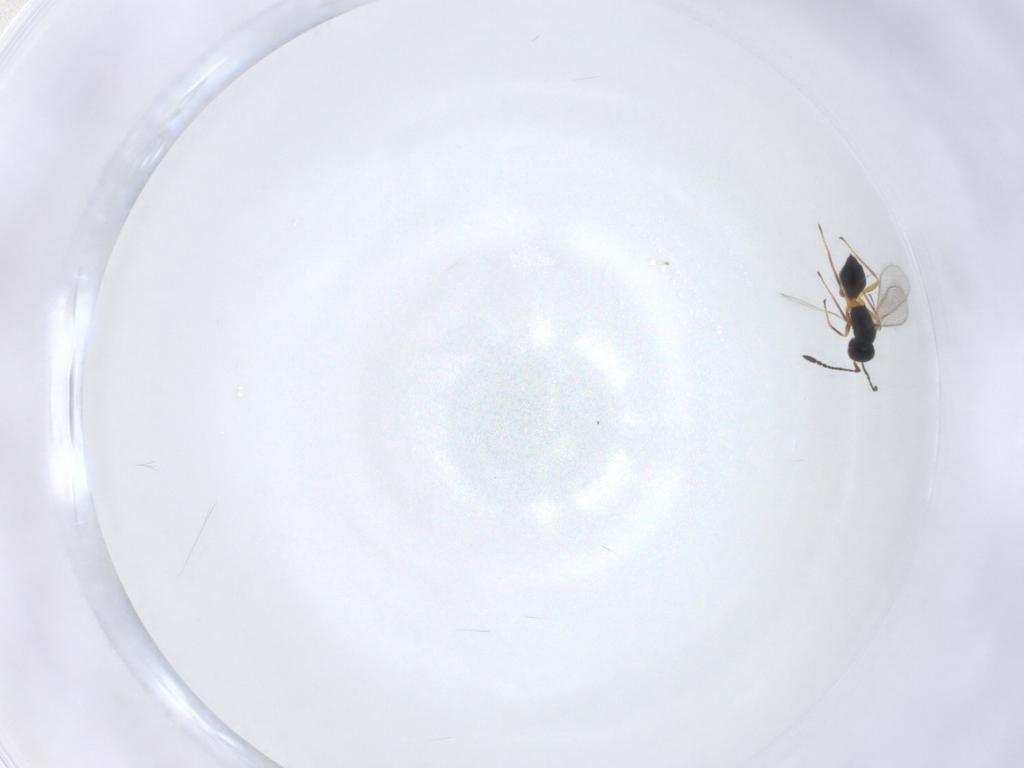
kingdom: Animalia
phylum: Arthropoda
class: Insecta
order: Hymenoptera
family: Mymaridae
